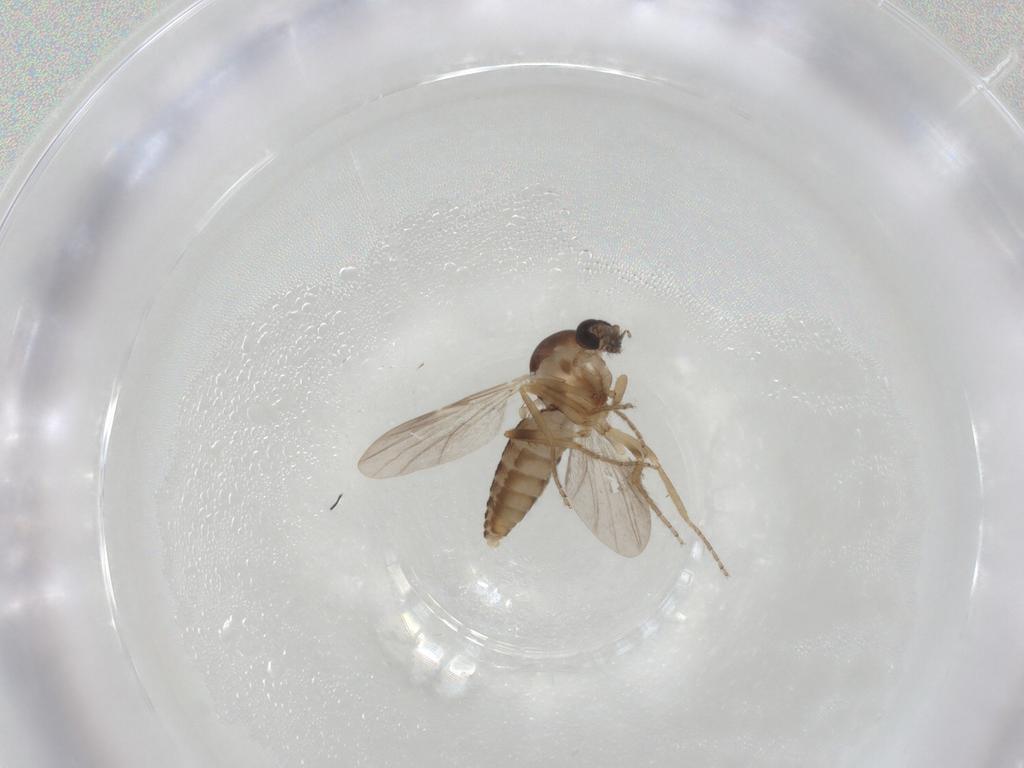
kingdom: Animalia
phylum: Arthropoda
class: Insecta
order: Diptera
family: Ceratopogonidae
